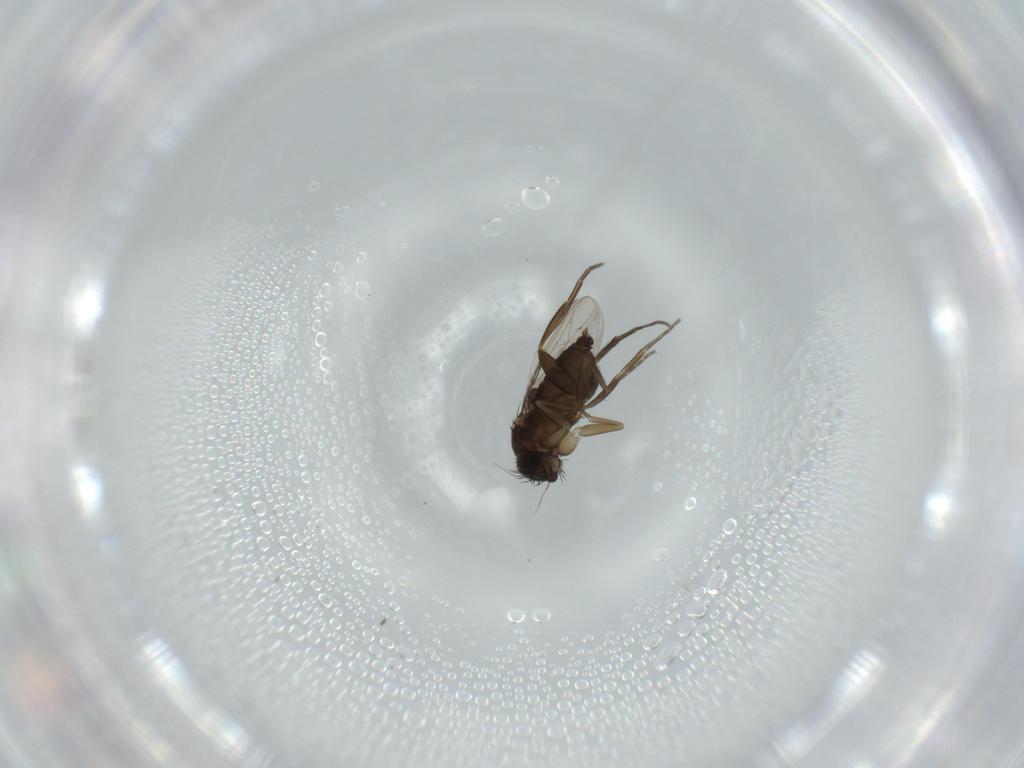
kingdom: Animalia
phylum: Arthropoda
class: Insecta
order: Diptera
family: Phoridae
